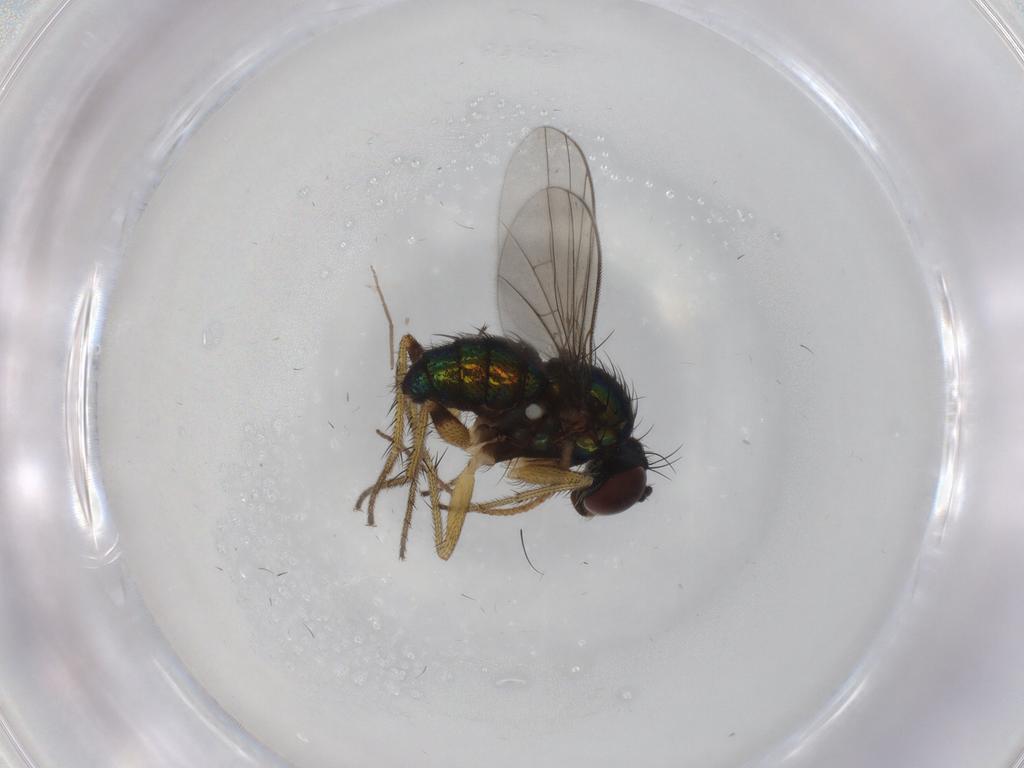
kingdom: Animalia
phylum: Arthropoda
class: Insecta
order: Diptera
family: Dolichopodidae
